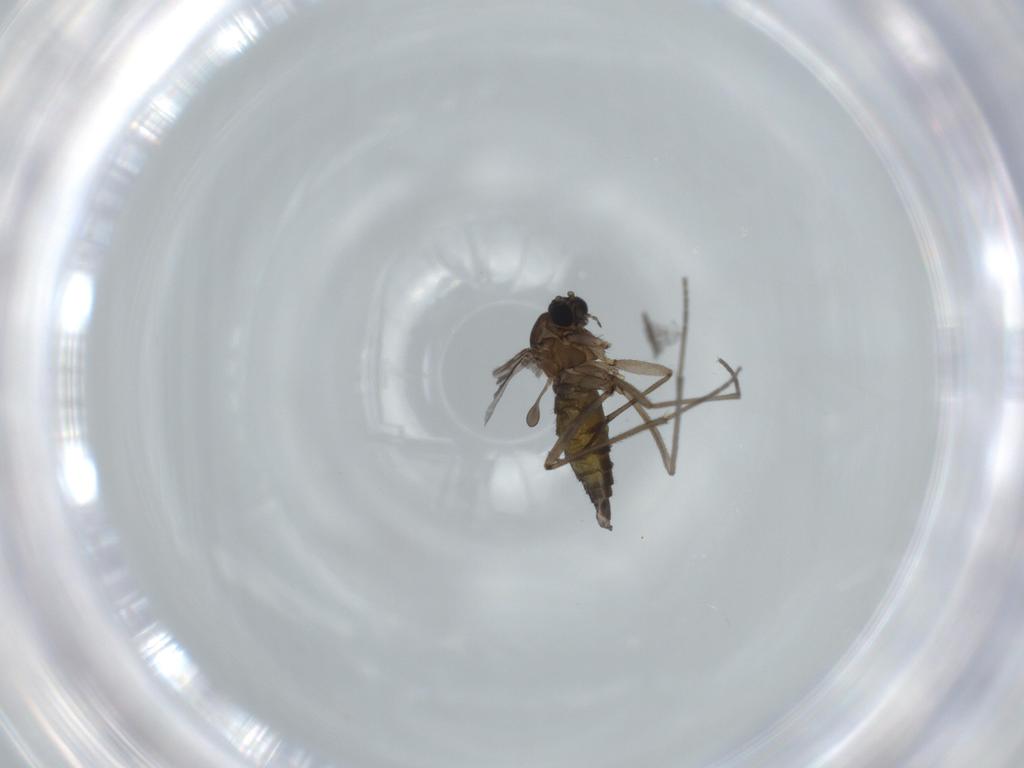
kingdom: Animalia
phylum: Arthropoda
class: Insecta
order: Diptera
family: Sciaridae
